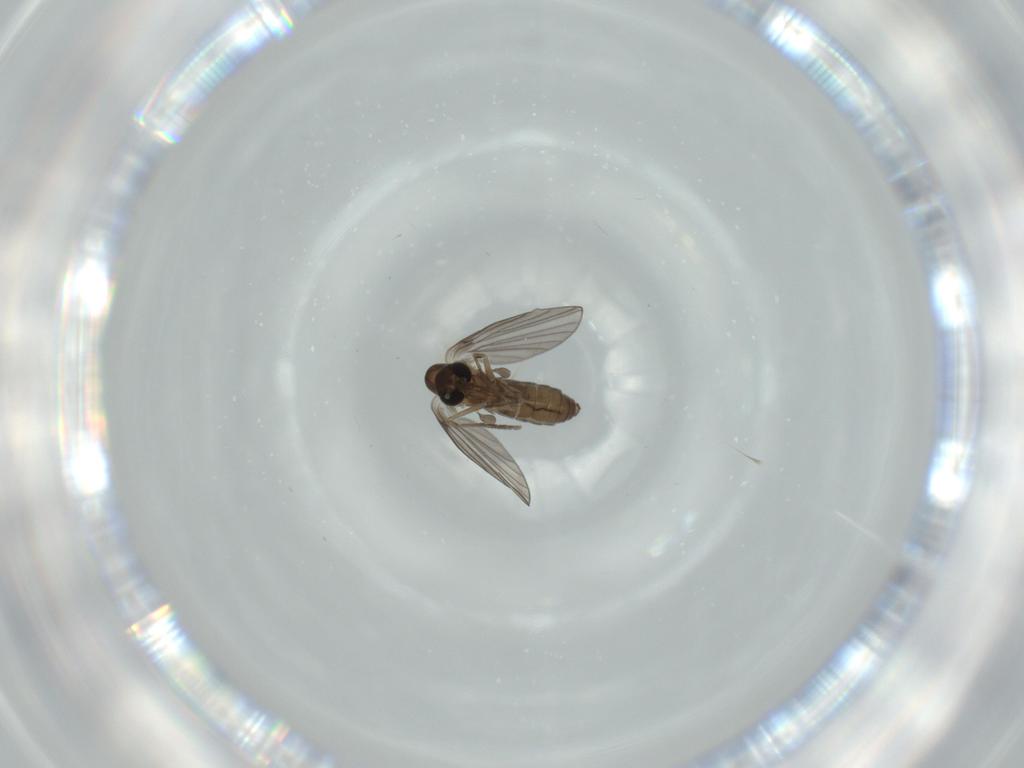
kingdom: Animalia
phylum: Arthropoda
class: Insecta
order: Diptera
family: Psychodidae
